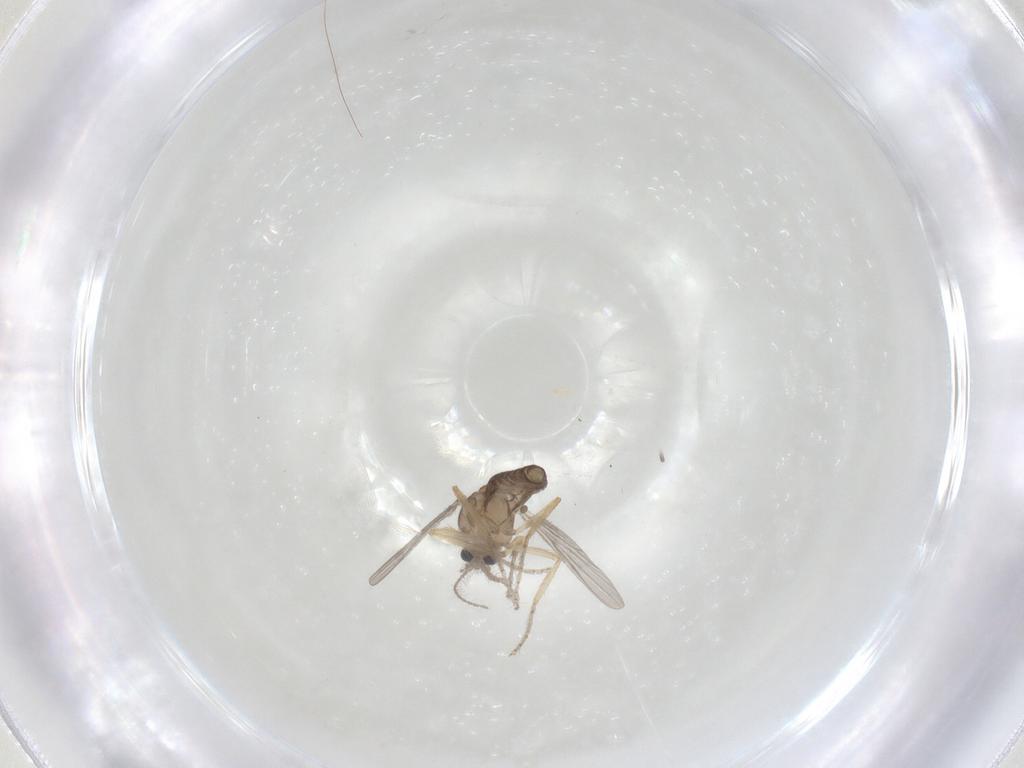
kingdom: Animalia
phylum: Arthropoda
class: Insecta
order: Diptera
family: Ceratopogonidae
